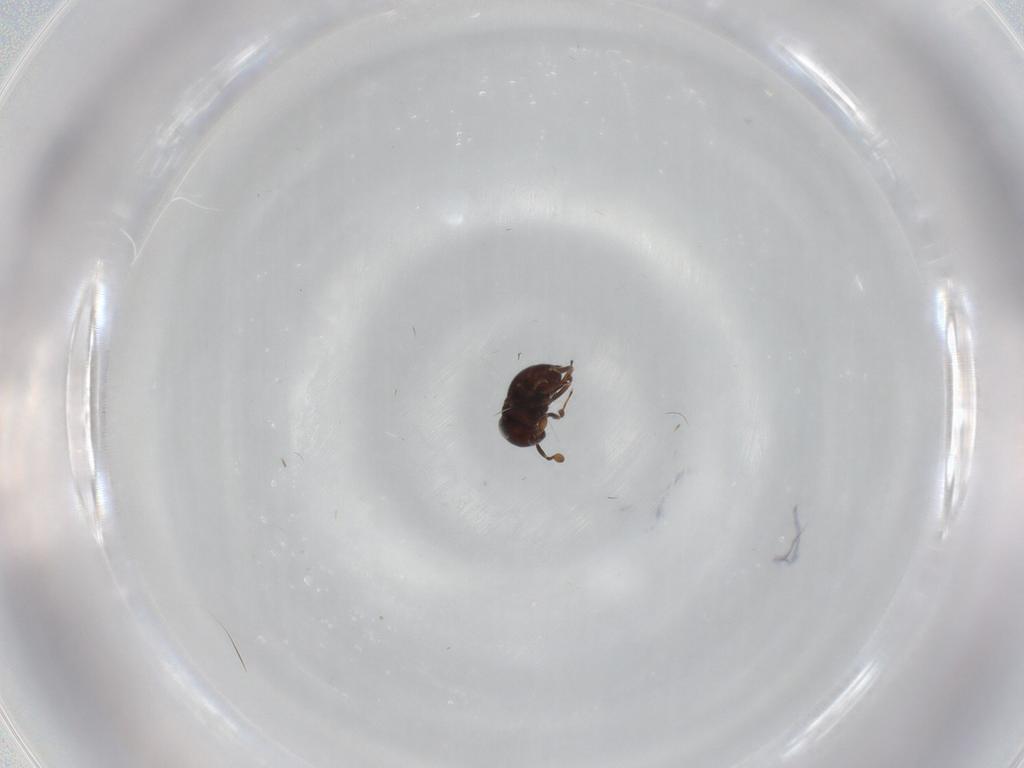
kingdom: Animalia
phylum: Arthropoda
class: Insecta
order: Hymenoptera
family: Scelionidae
